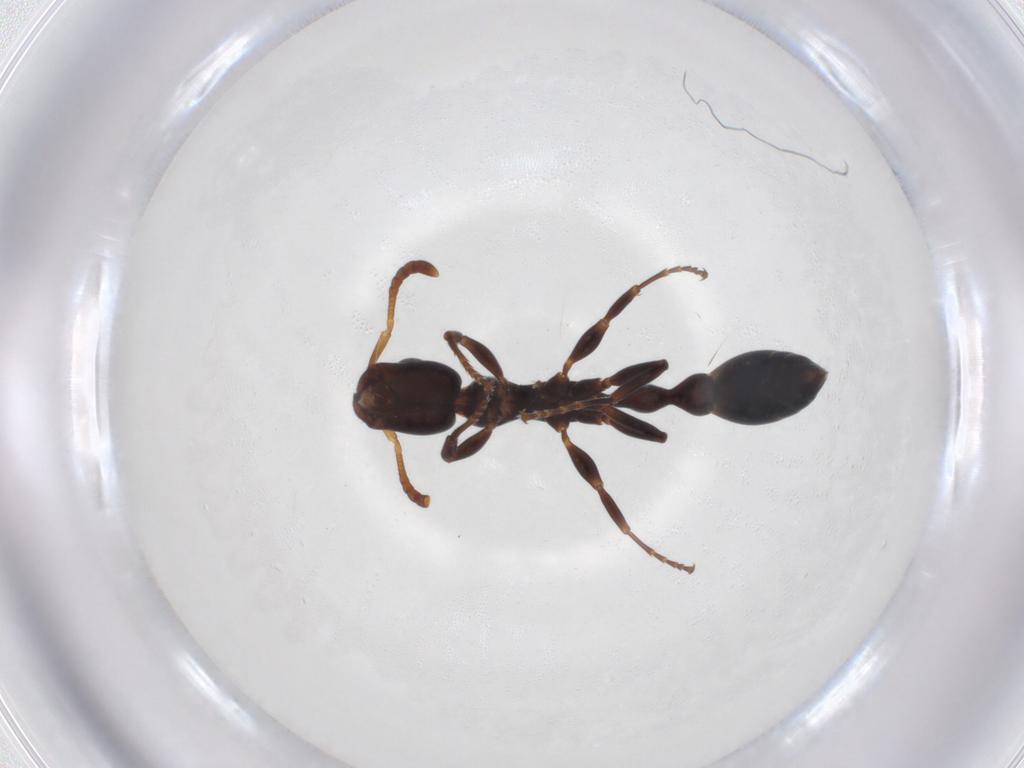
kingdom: Animalia
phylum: Arthropoda
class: Insecta
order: Hymenoptera
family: Formicidae
